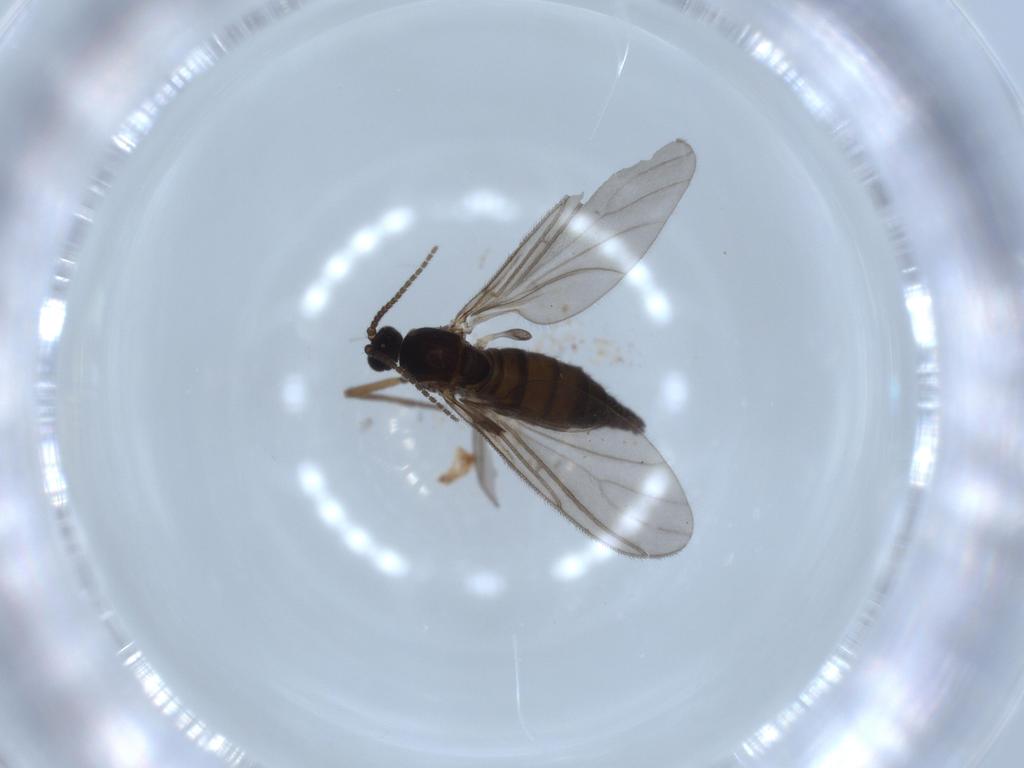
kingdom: Animalia
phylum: Arthropoda
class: Insecta
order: Diptera
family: Sciaridae
